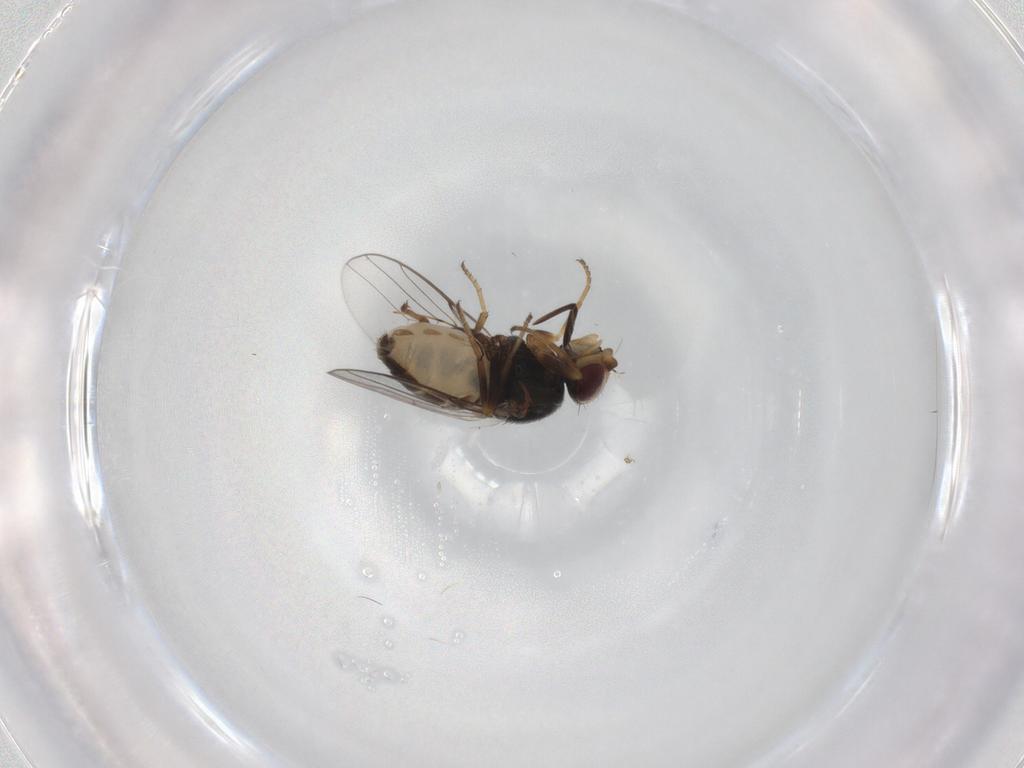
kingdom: Animalia
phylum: Arthropoda
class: Insecta
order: Diptera
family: Chloropidae
